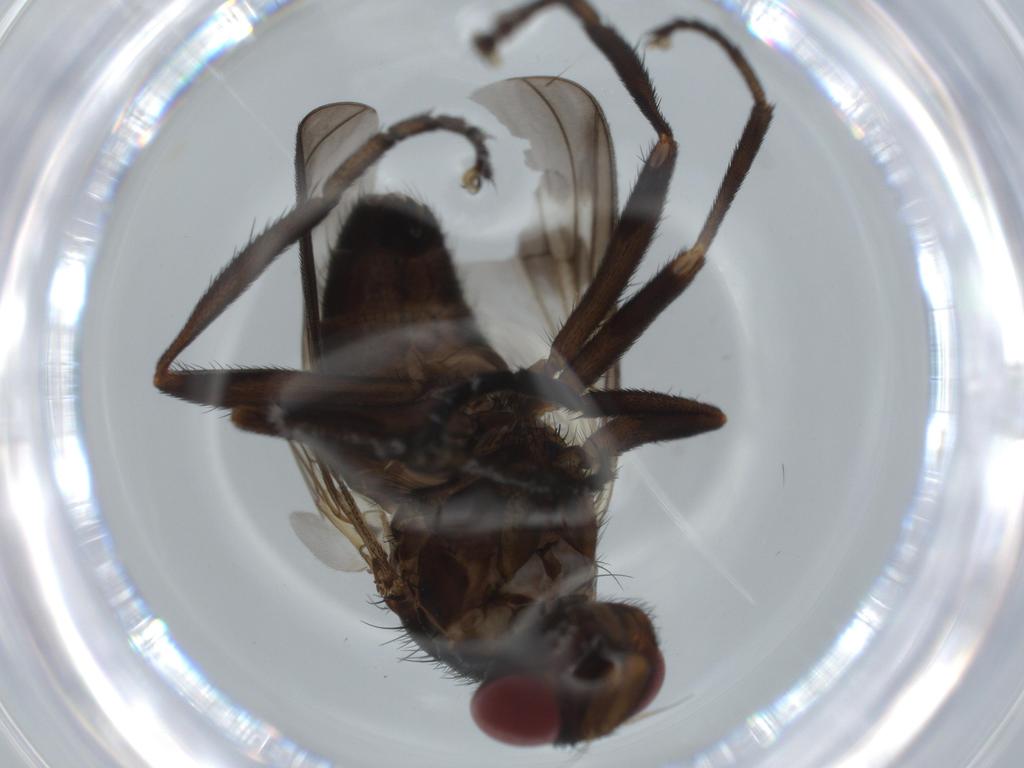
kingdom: Animalia
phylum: Arthropoda
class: Insecta
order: Diptera
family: Calliphoridae
